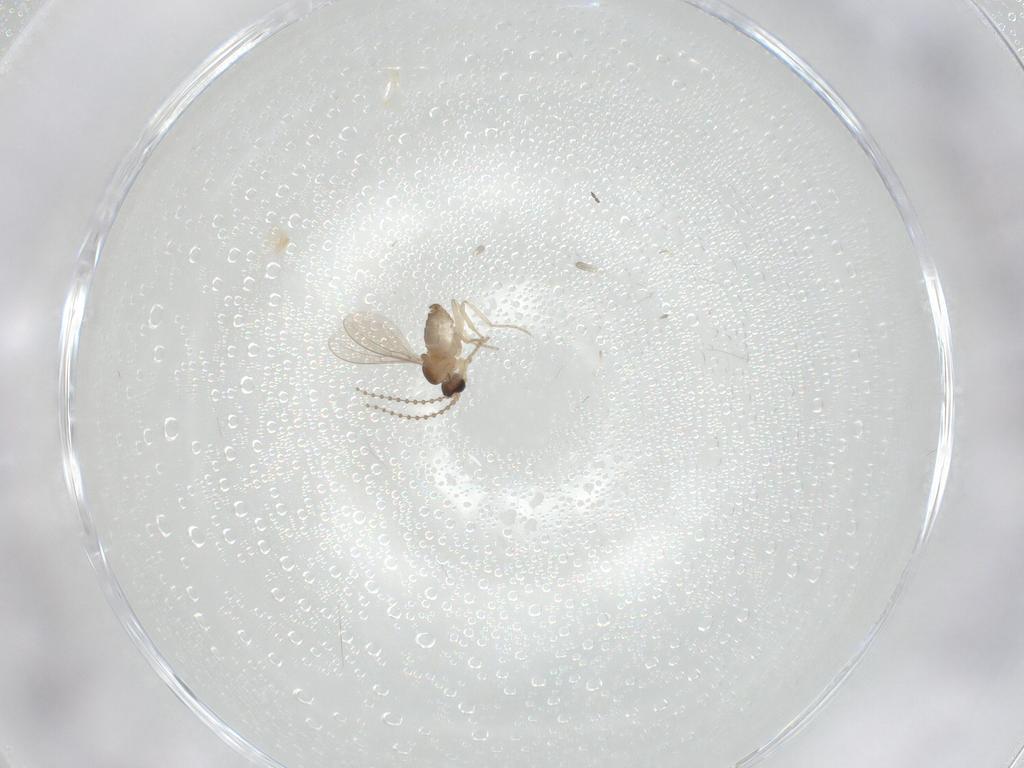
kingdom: Animalia
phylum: Arthropoda
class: Insecta
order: Diptera
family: Cecidomyiidae
